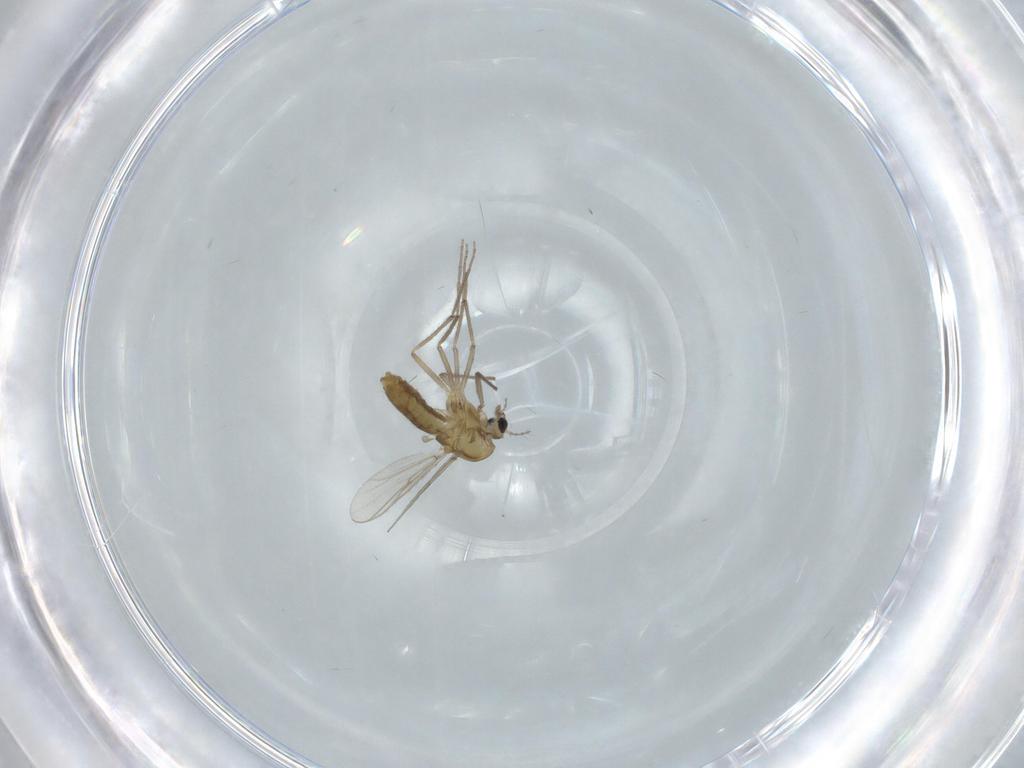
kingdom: Animalia
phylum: Arthropoda
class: Insecta
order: Diptera
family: Chironomidae
